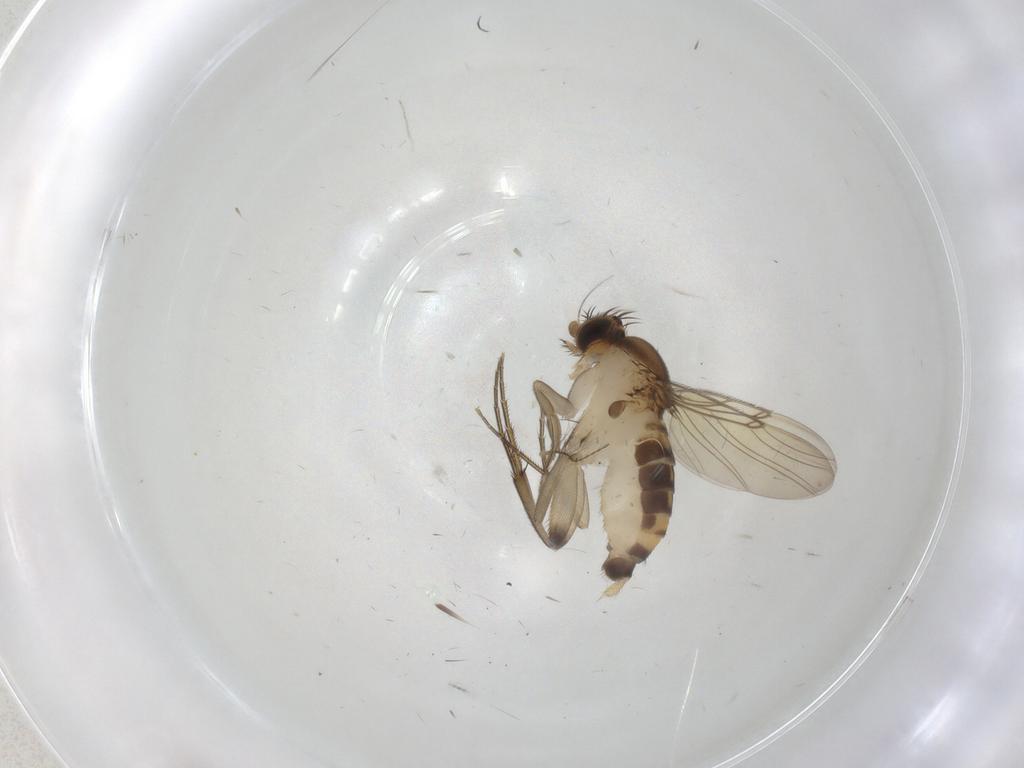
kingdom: Animalia
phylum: Arthropoda
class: Insecta
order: Diptera
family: Phoridae
